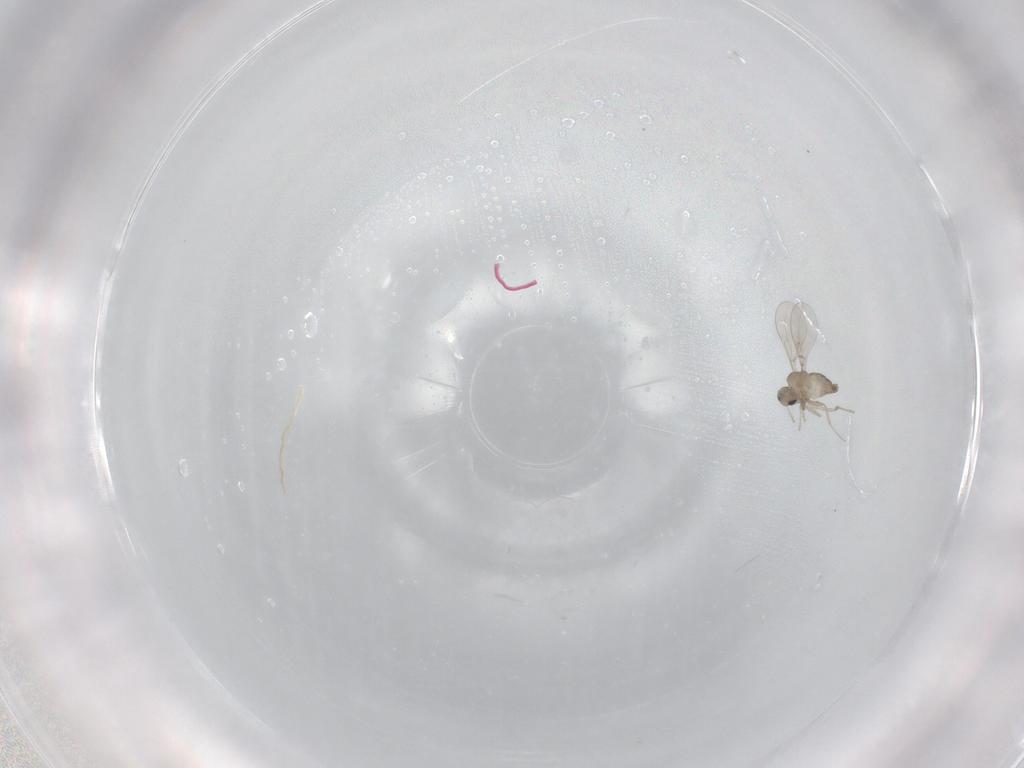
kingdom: Animalia
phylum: Arthropoda
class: Insecta
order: Diptera
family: Cecidomyiidae
